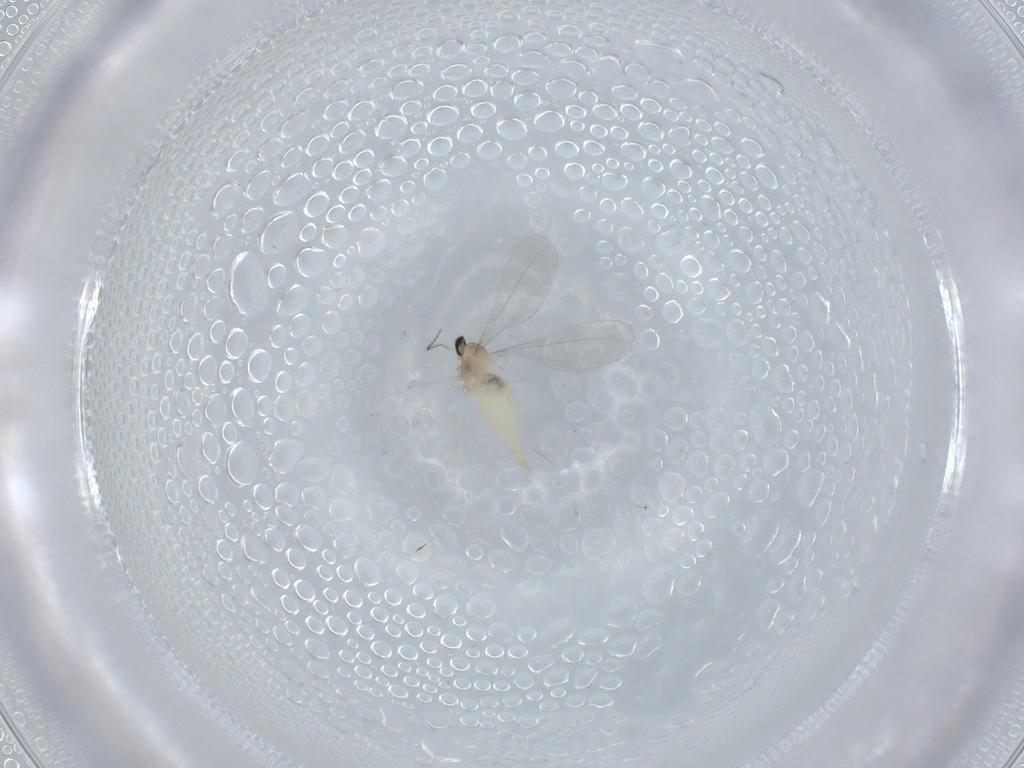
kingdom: Animalia
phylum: Arthropoda
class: Insecta
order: Diptera
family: Cecidomyiidae
